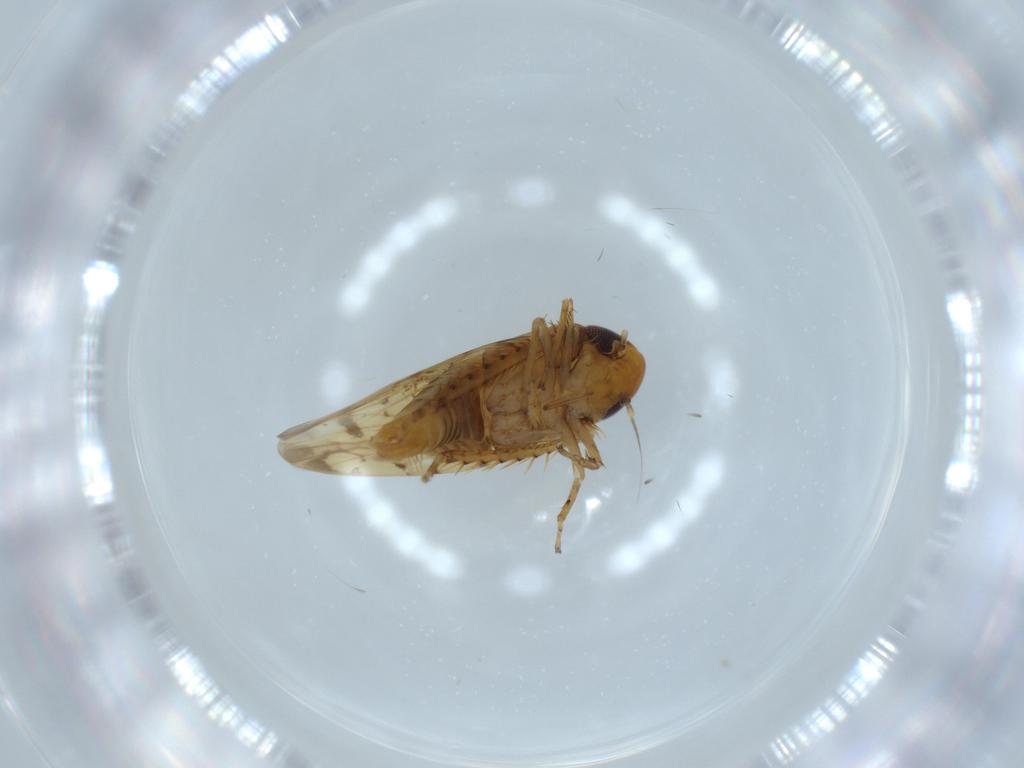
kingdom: Animalia
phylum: Arthropoda
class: Insecta
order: Hemiptera
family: Cicadellidae
